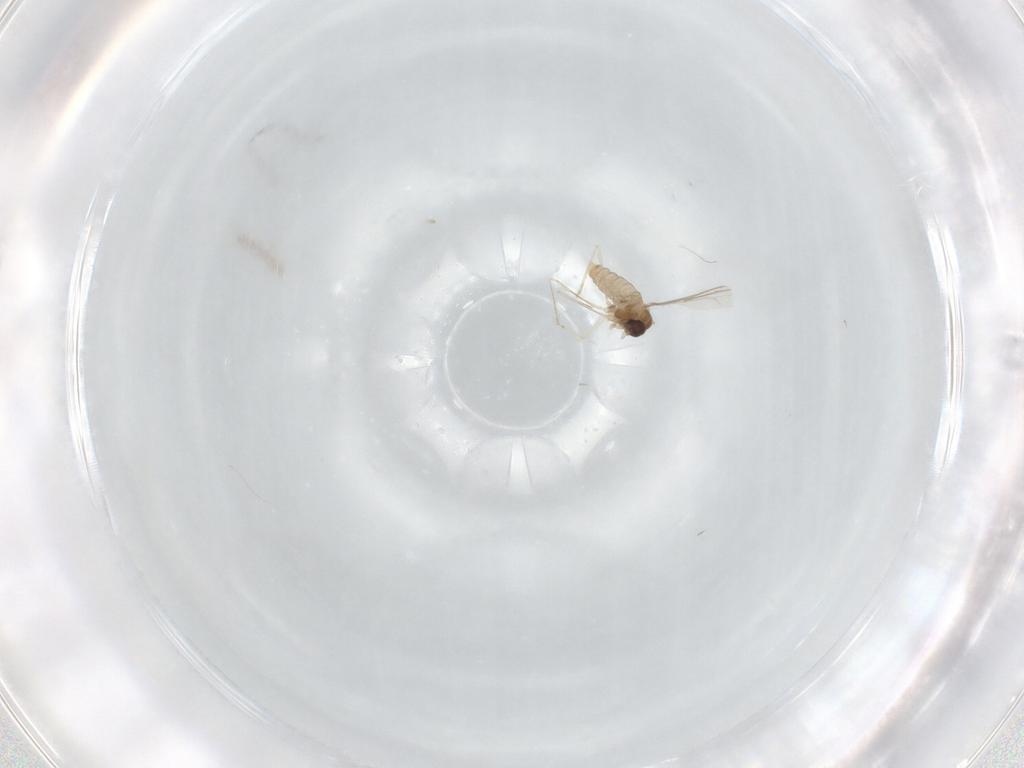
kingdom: Animalia
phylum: Arthropoda
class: Insecta
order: Diptera
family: Cecidomyiidae
